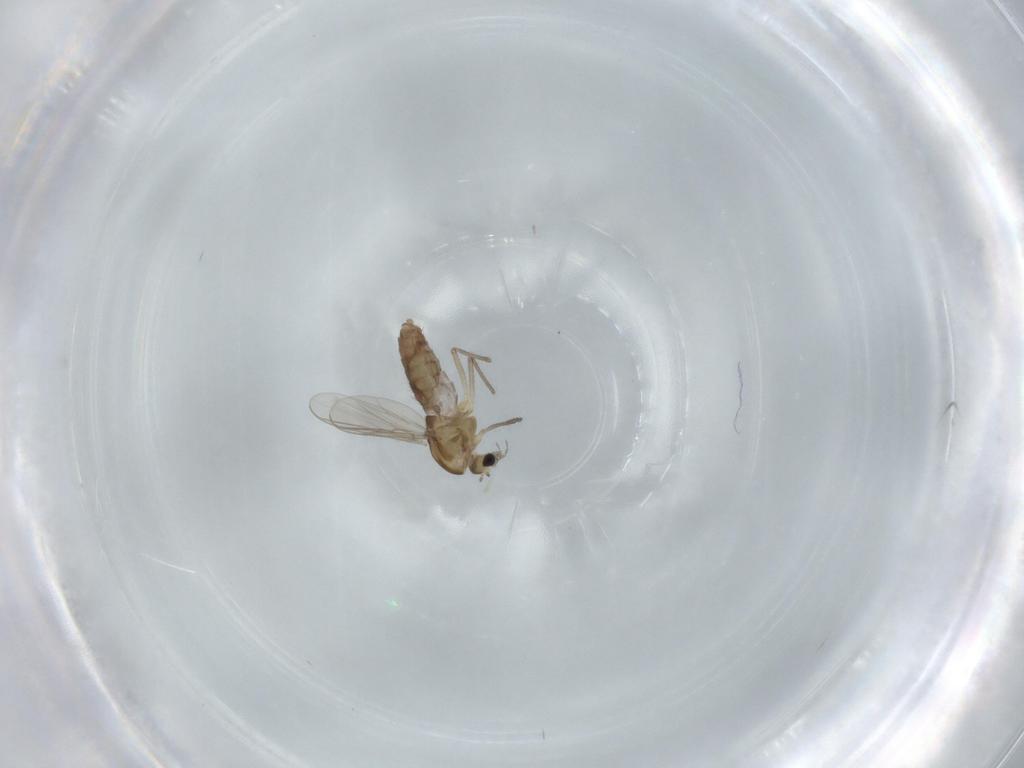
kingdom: Animalia
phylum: Arthropoda
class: Insecta
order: Diptera
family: Chironomidae
